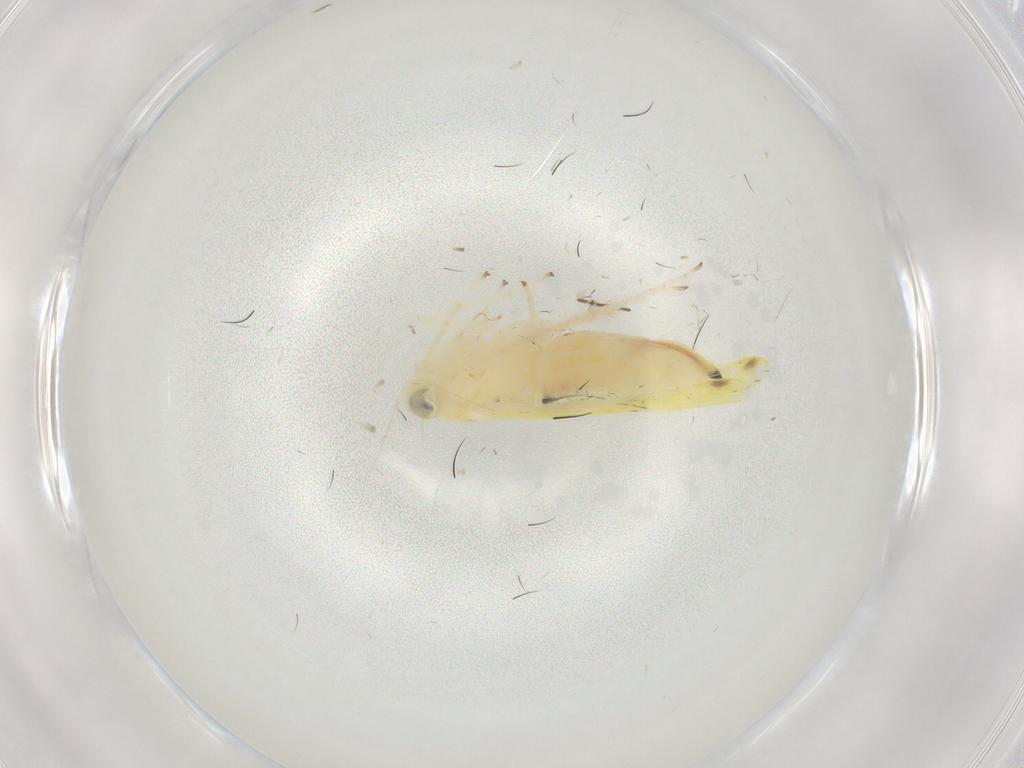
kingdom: Animalia
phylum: Arthropoda
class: Insecta
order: Hemiptera
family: Cicadellidae
